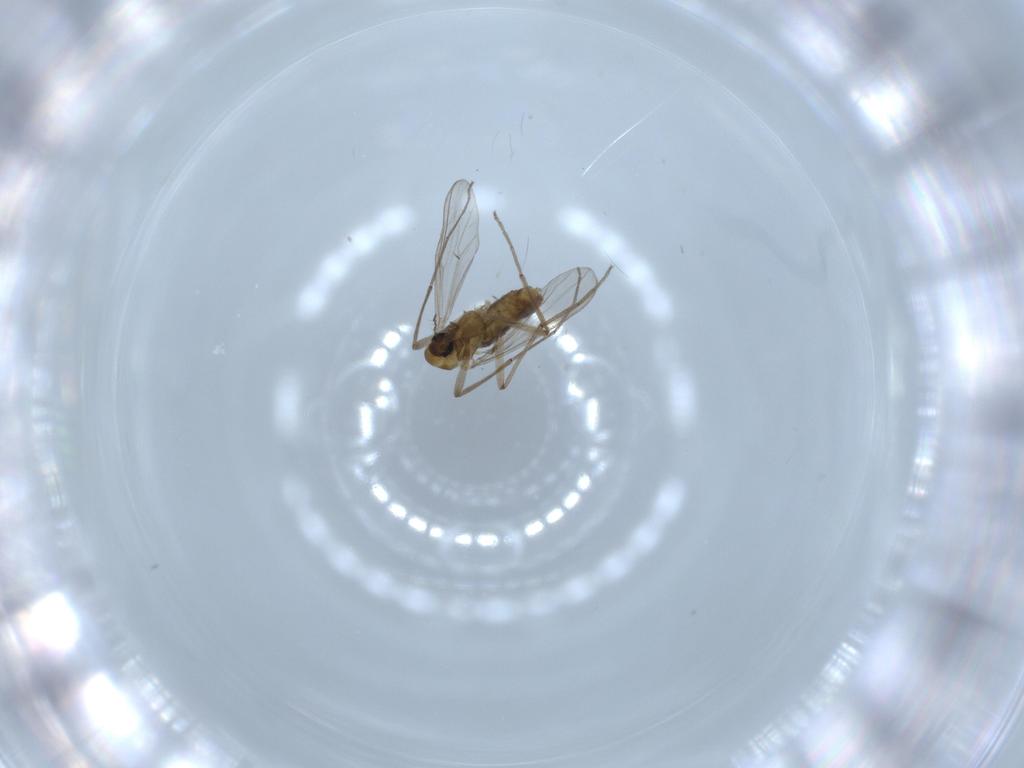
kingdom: Animalia
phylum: Arthropoda
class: Insecta
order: Diptera
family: Chironomidae
